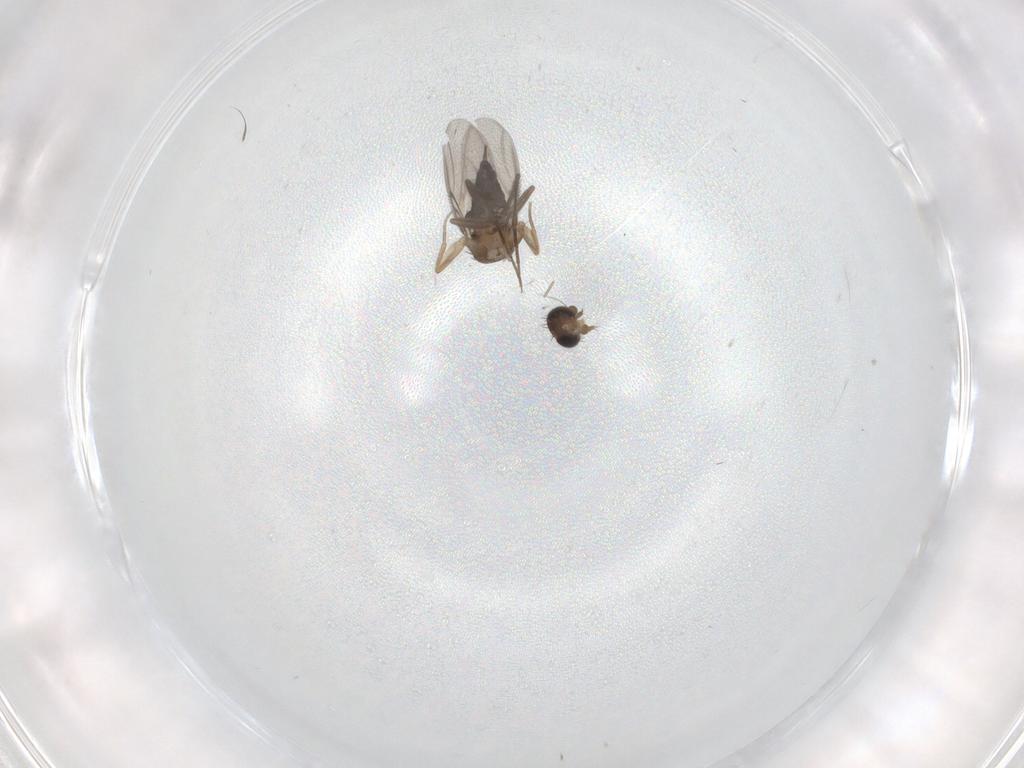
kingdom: Animalia
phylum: Arthropoda
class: Insecta
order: Diptera
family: Phoridae
